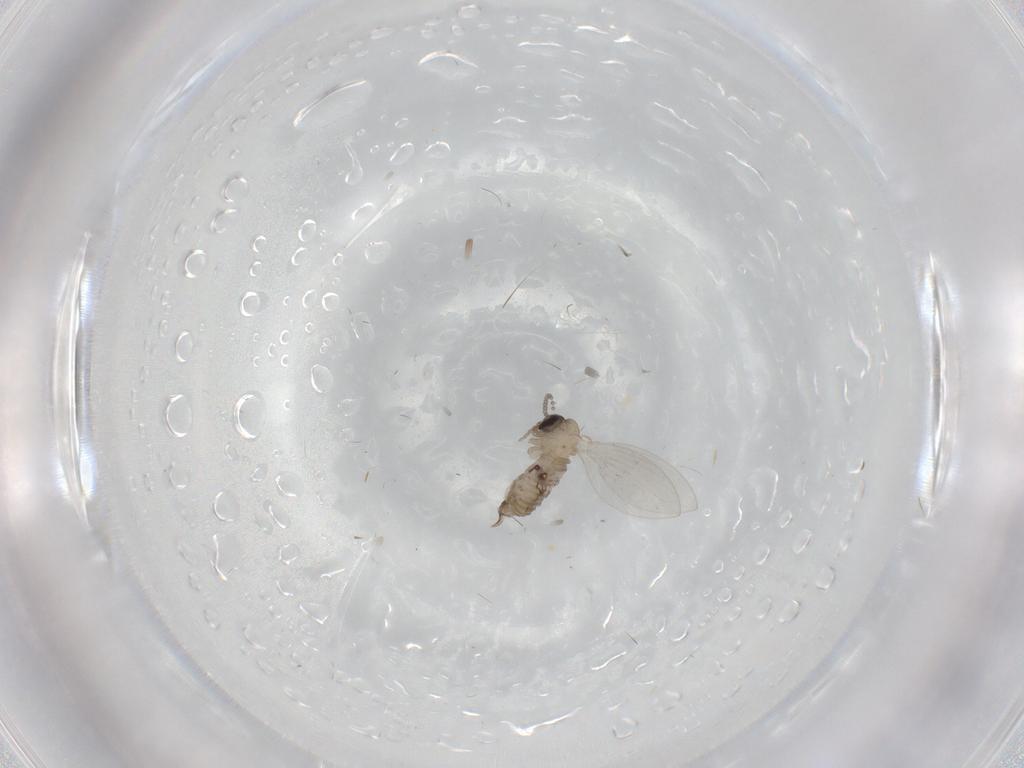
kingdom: Animalia
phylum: Arthropoda
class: Insecta
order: Diptera
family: Psychodidae
